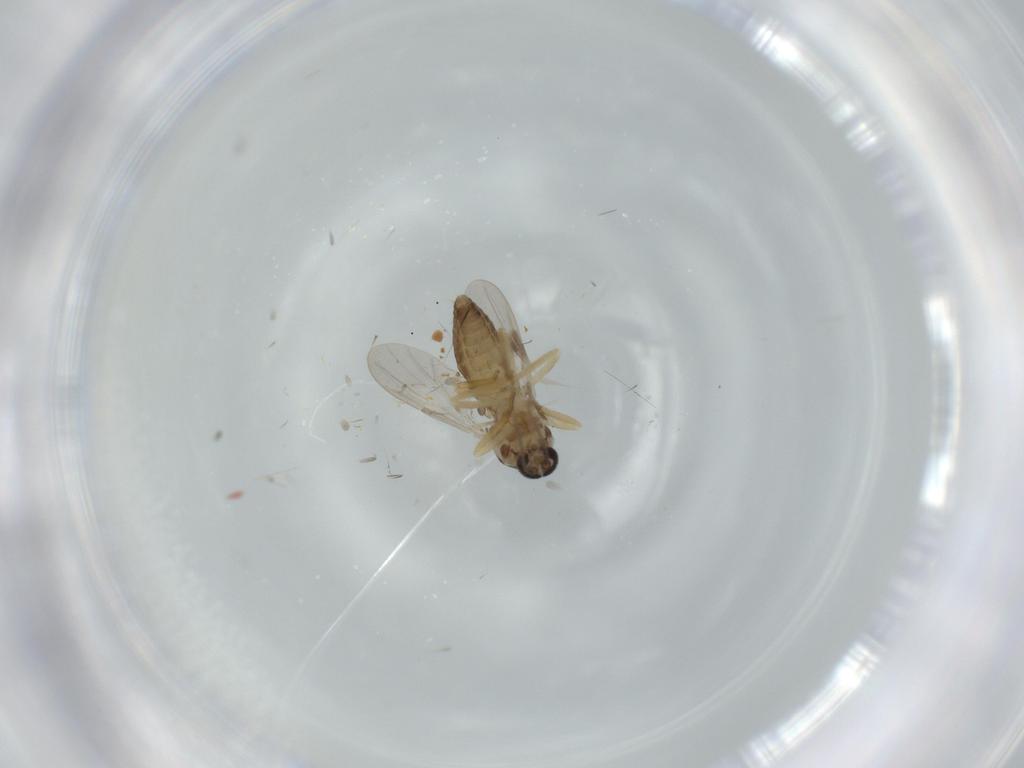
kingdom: Animalia
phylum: Arthropoda
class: Insecta
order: Diptera
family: Ceratopogonidae
